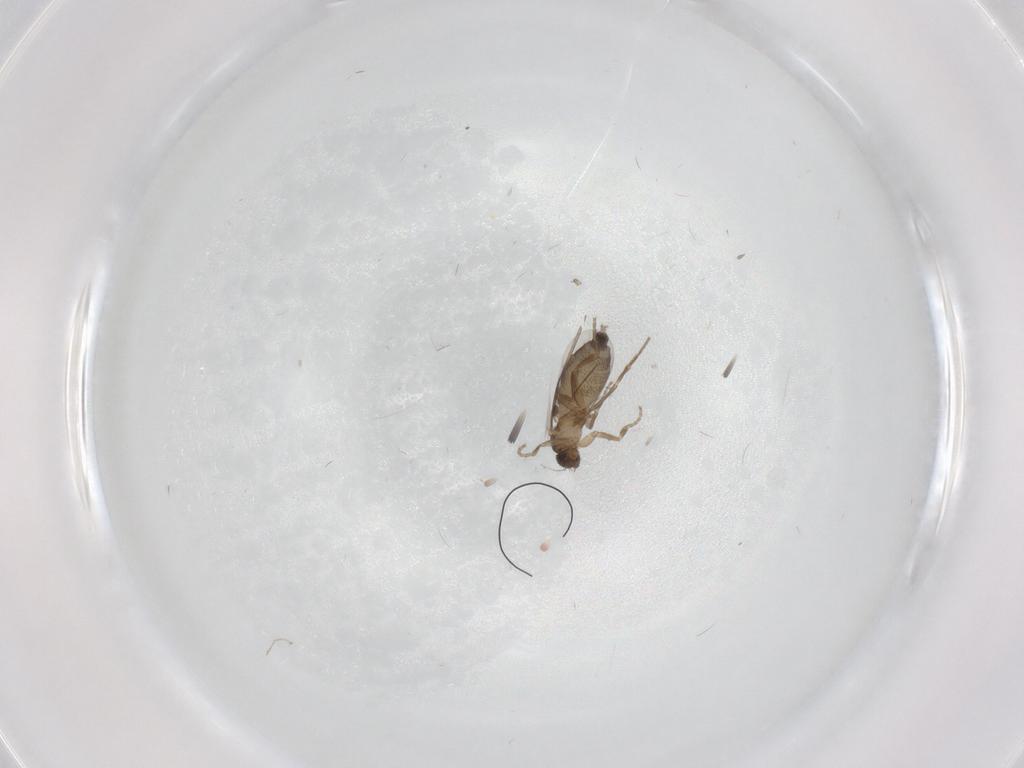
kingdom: Animalia
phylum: Arthropoda
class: Insecta
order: Diptera
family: Phoridae
